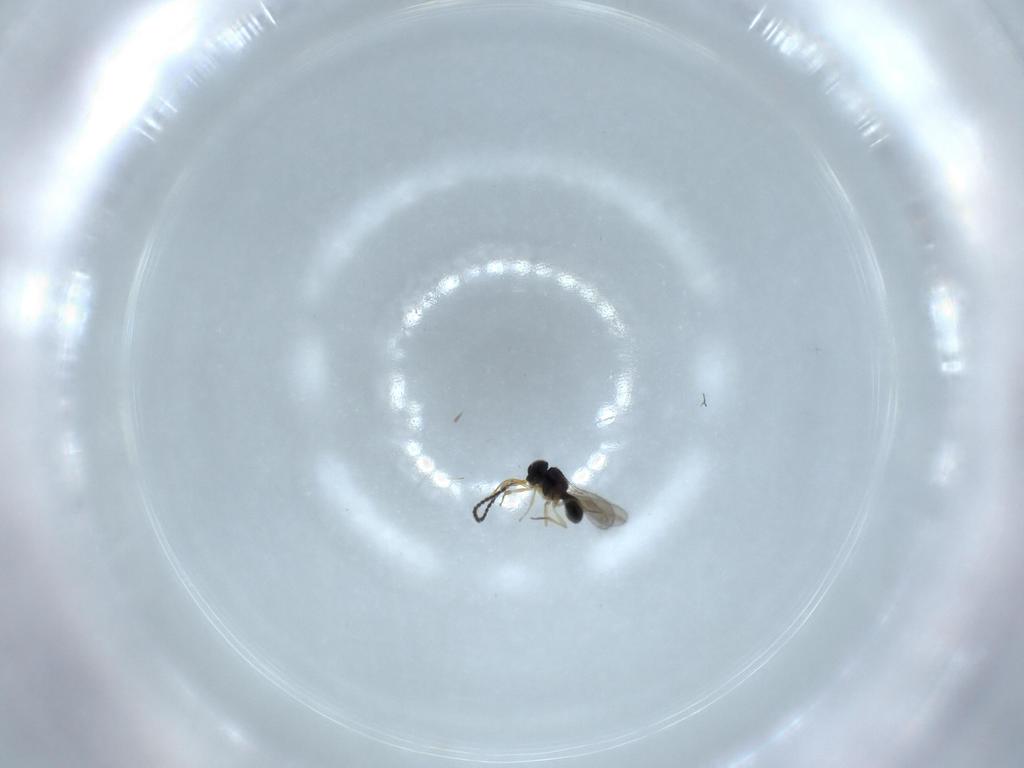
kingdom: Animalia
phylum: Arthropoda
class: Insecta
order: Hymenoptera
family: Scelionidae
